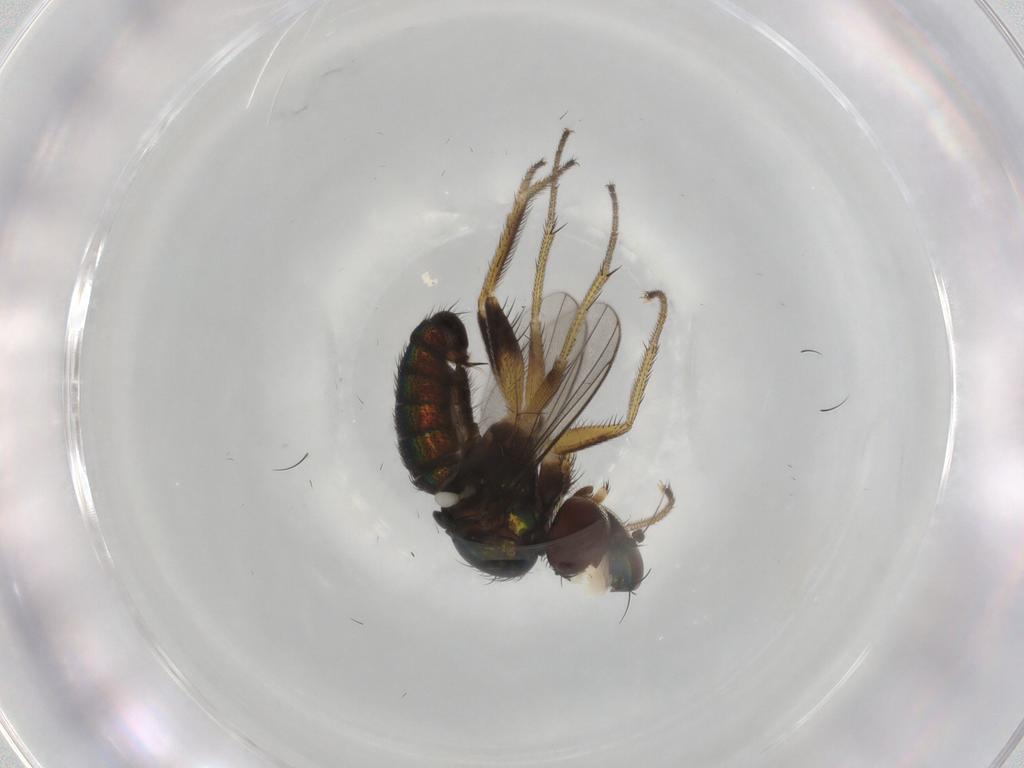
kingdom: Animalia
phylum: Arthropoda
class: Insecta
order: Diptera
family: Dolichopodidae
